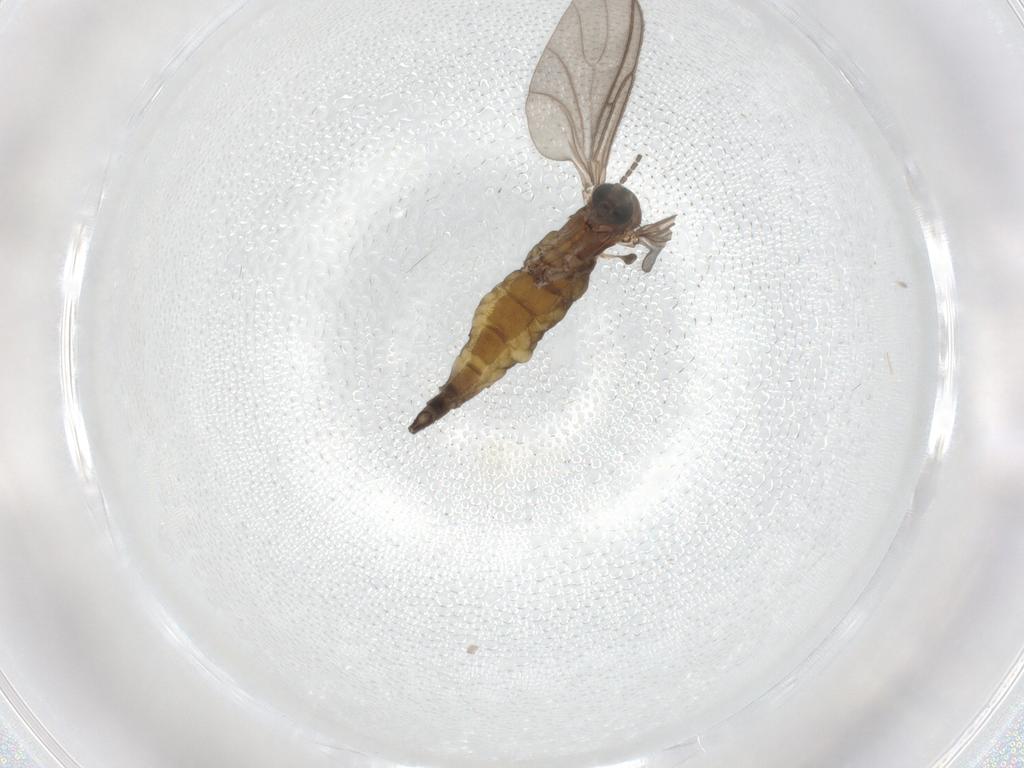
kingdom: Animalia
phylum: Arthropoda
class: Insecta
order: Diptera
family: Sciaridae
